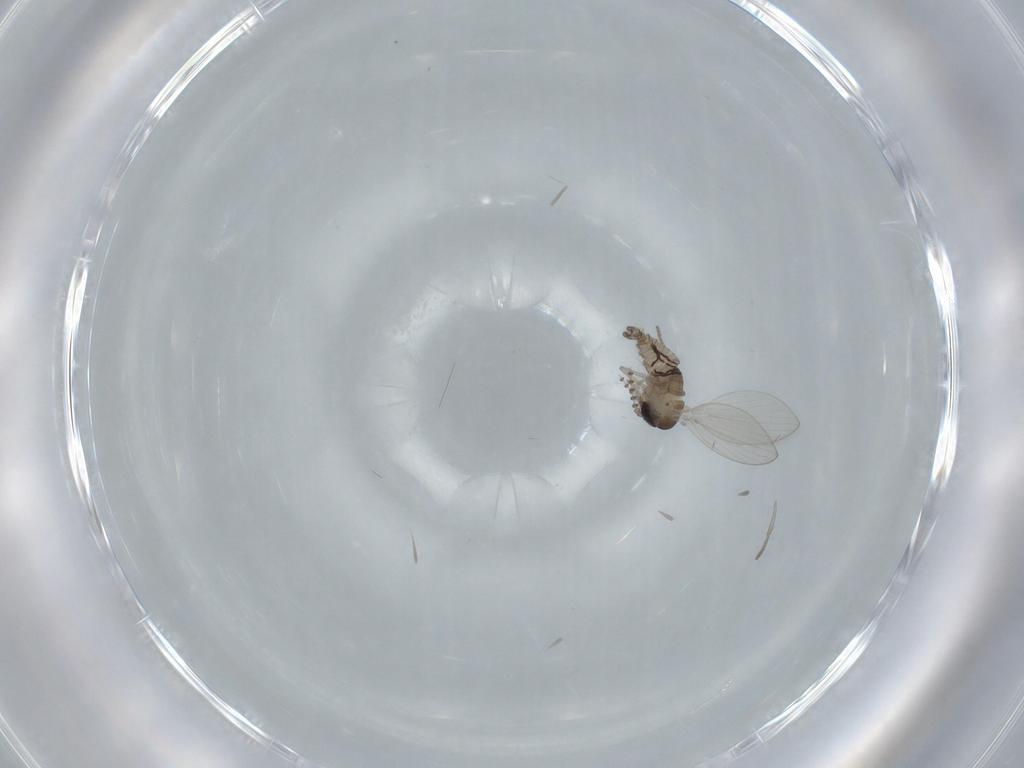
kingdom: Animalia
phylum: Arthropoda
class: Insecta
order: Diptera
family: Psychodidae
